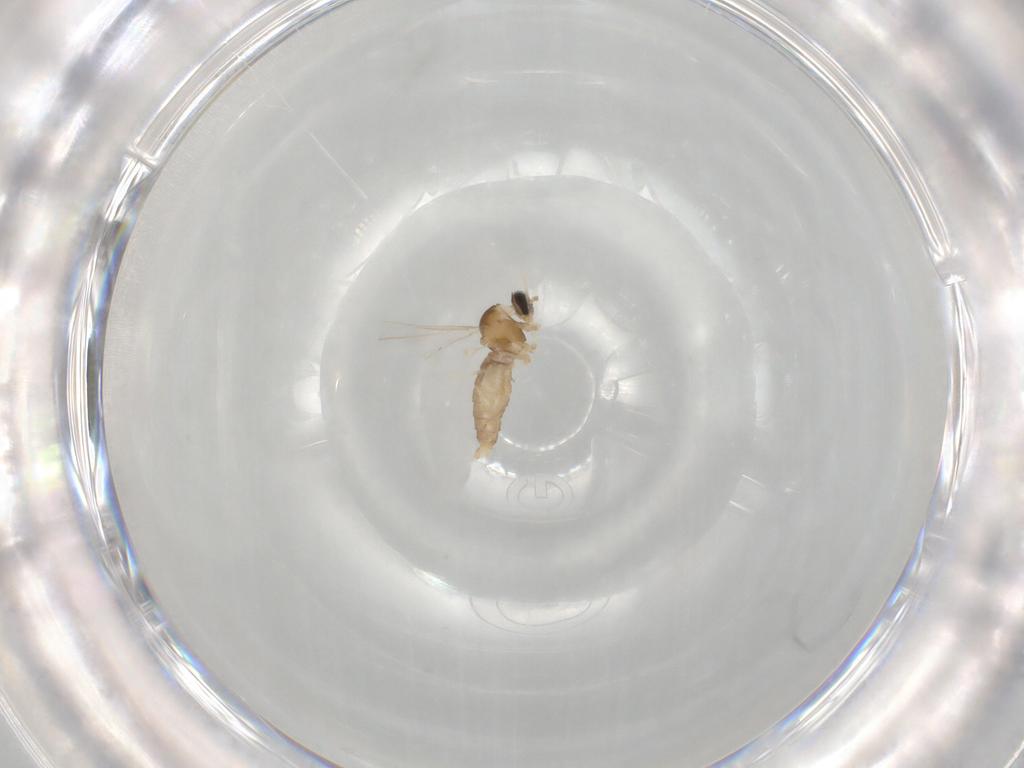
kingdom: Animalia
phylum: Arthropoda
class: Insecta
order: Diptera
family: Cecidomyiidae
